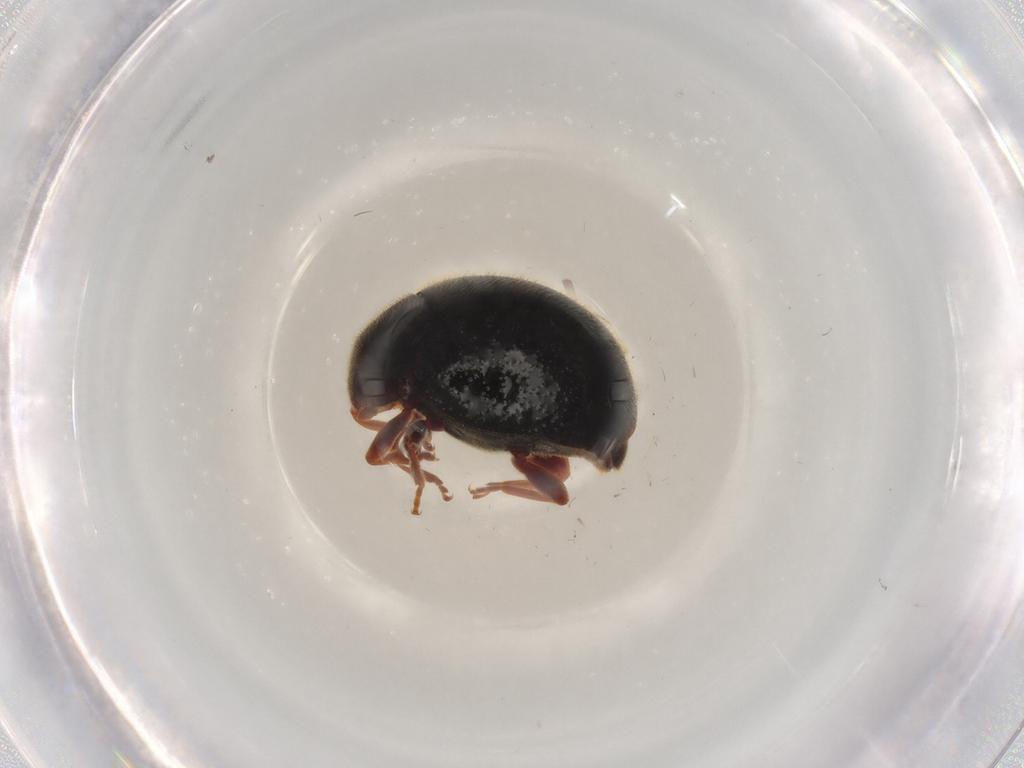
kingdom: Animalia
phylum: Arthropoda
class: Insecta
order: Coleoptera
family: Coccinellidae
